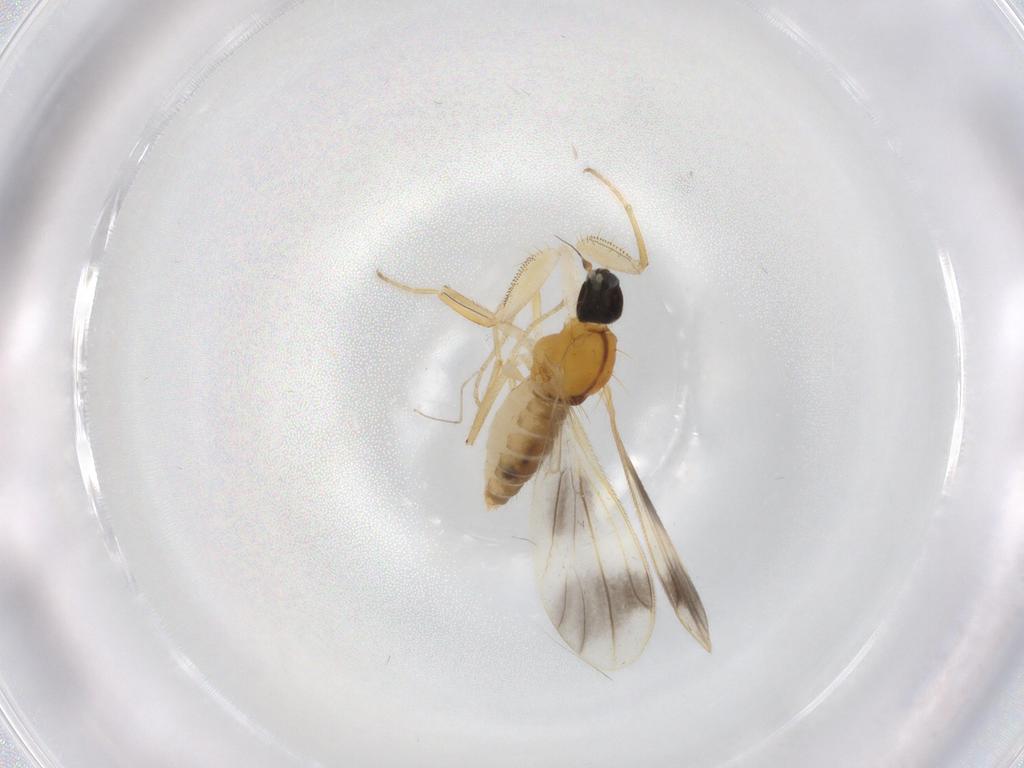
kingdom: Animalia
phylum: Arthropoda
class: Insecta
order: Diptera
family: Empididae
